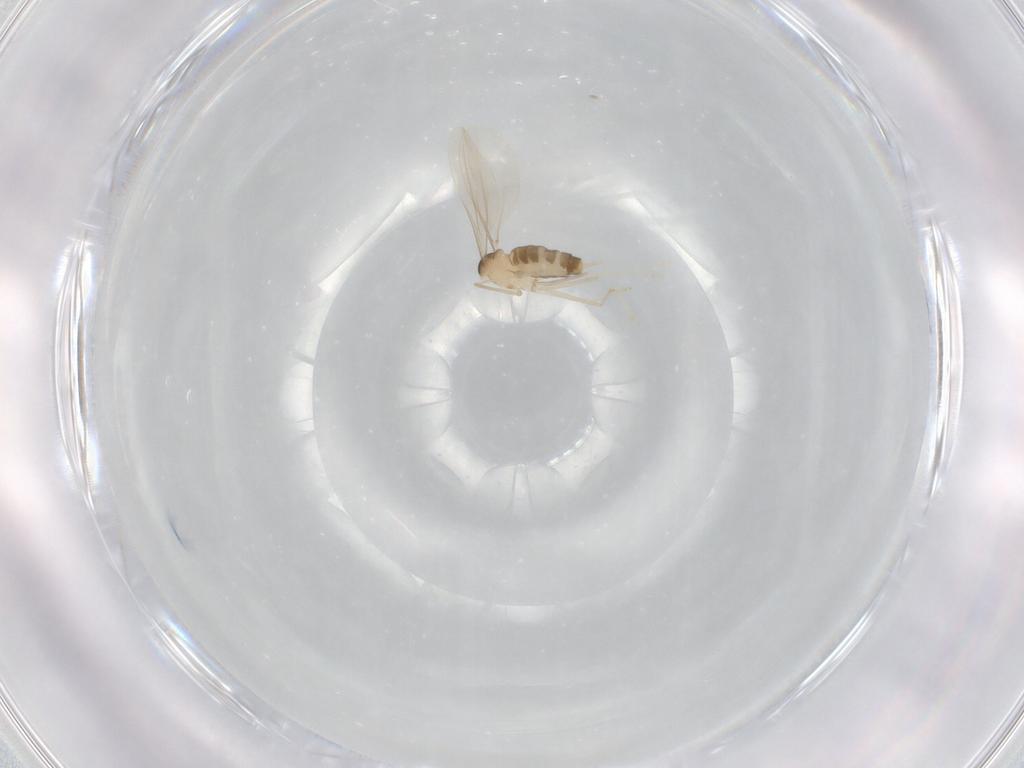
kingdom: Animalia
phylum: Arthropoda
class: Insecta
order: Diptera
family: Cecidomyiidae
